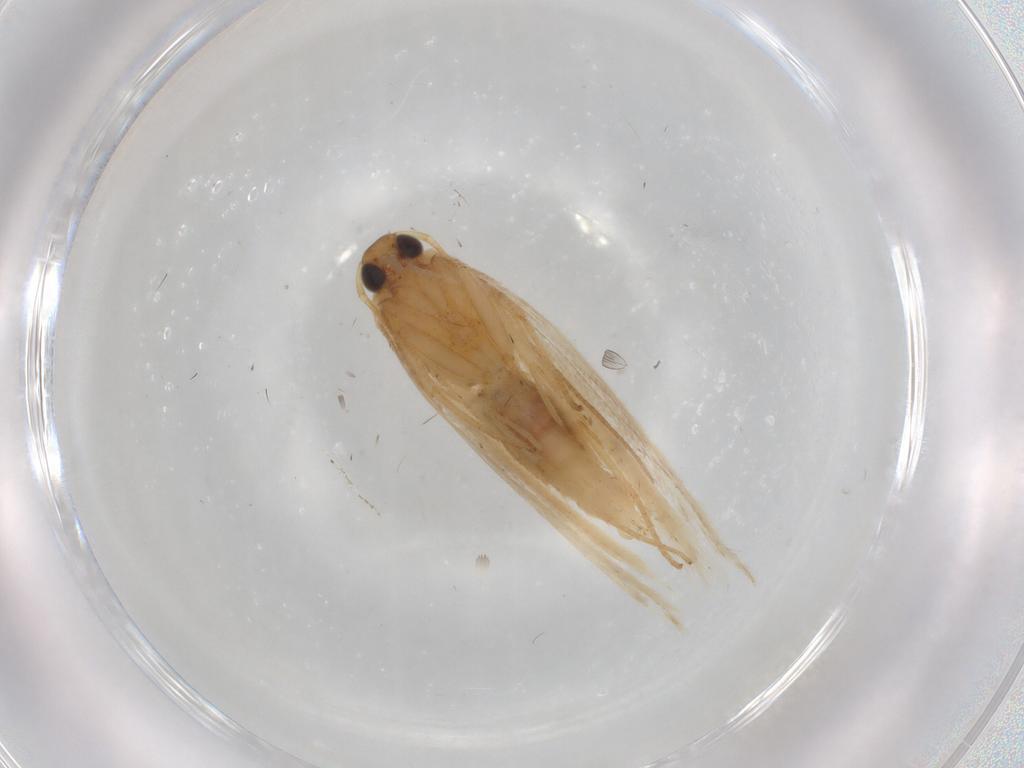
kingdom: Animalia
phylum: Arthropoda
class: Insecta
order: Lepidoptera
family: Gelechiidae
